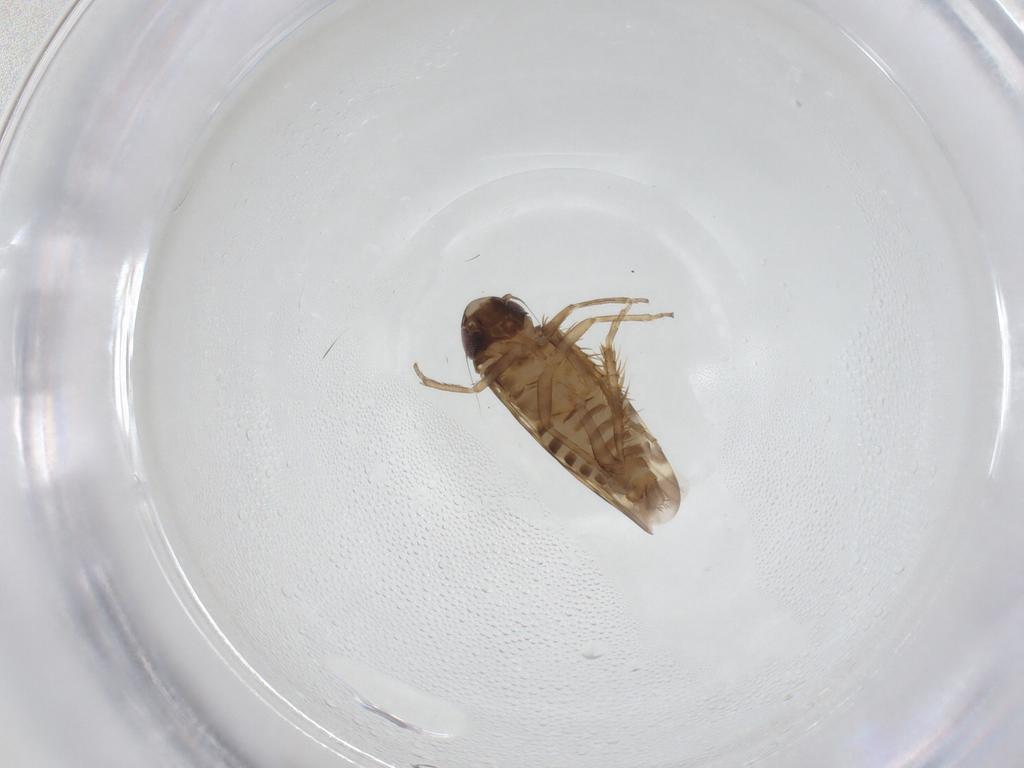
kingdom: Animalia
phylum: Arthropoda
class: Insecta
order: Hemiptera
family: Cicadellidae
